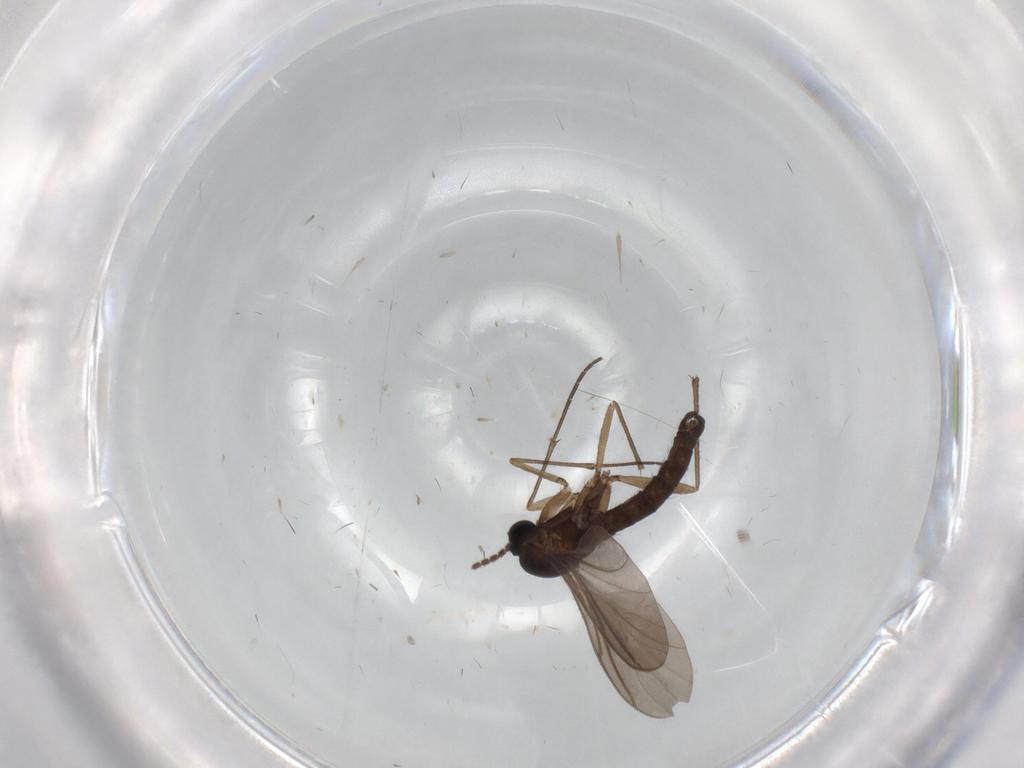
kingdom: Animalia
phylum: Arthropoda
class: Insecta
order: Diptera
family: Sciaridae
